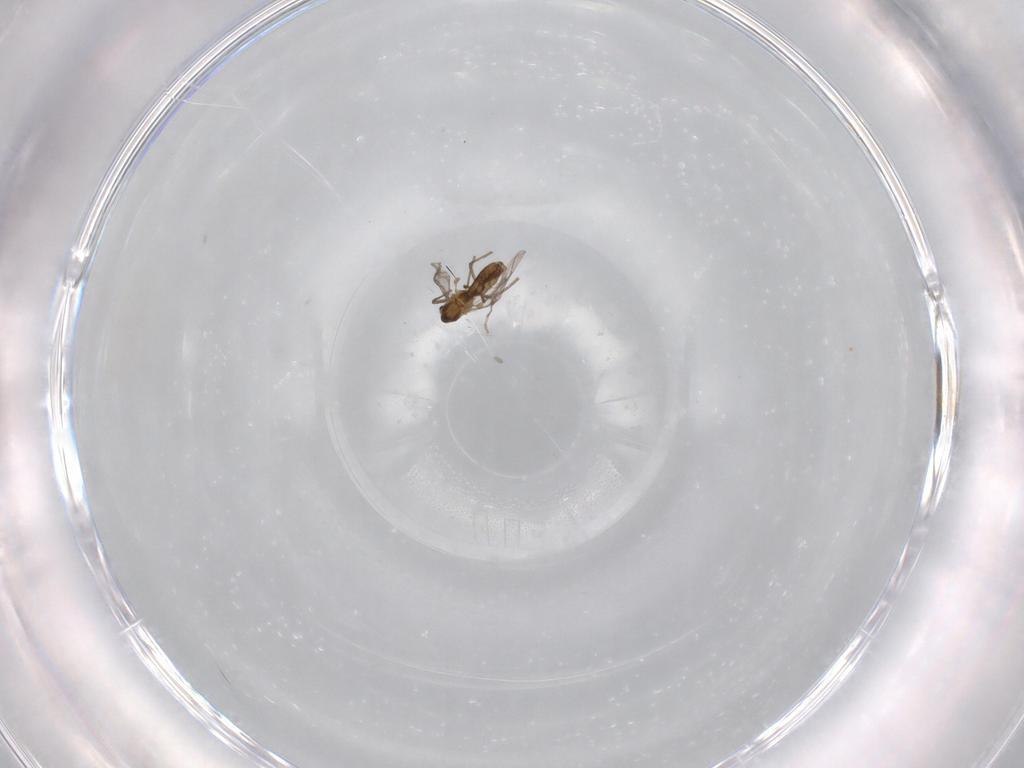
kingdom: Animalia
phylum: Arthropoda
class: Insecta
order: Diptera
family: Chironomidae
